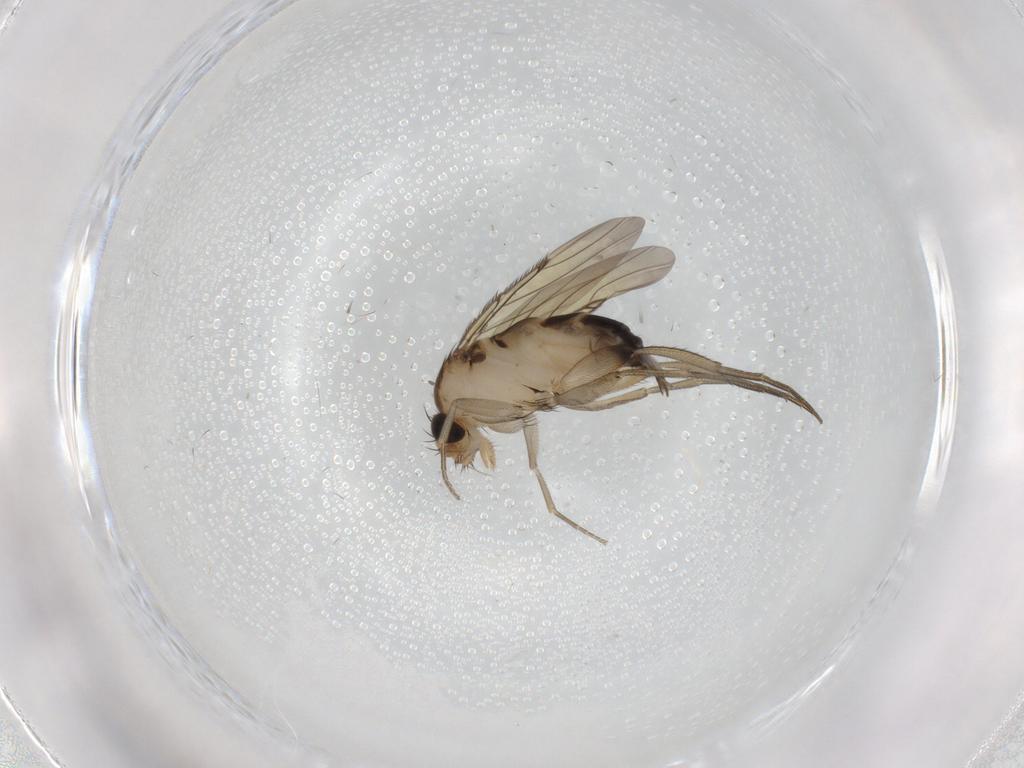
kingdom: Animalia
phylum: Arthropoda
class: Insecta
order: Diptera
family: Phoridae
